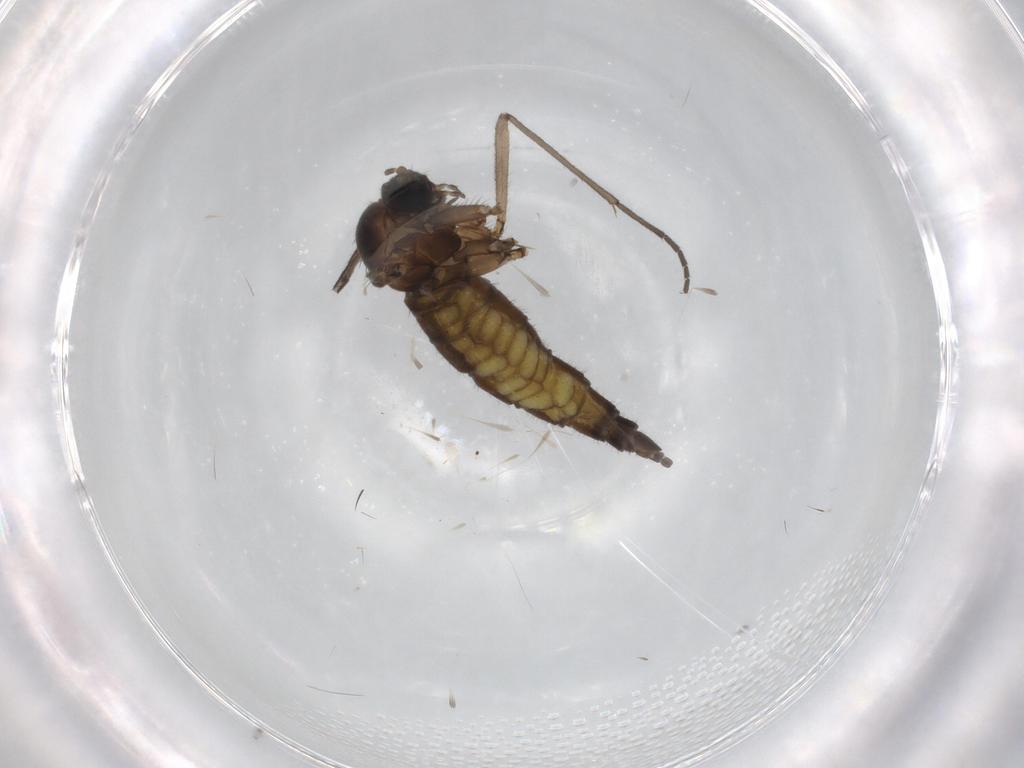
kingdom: Animalia
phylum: Arthropoda
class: Insecta
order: Diptera
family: Sciaridae
